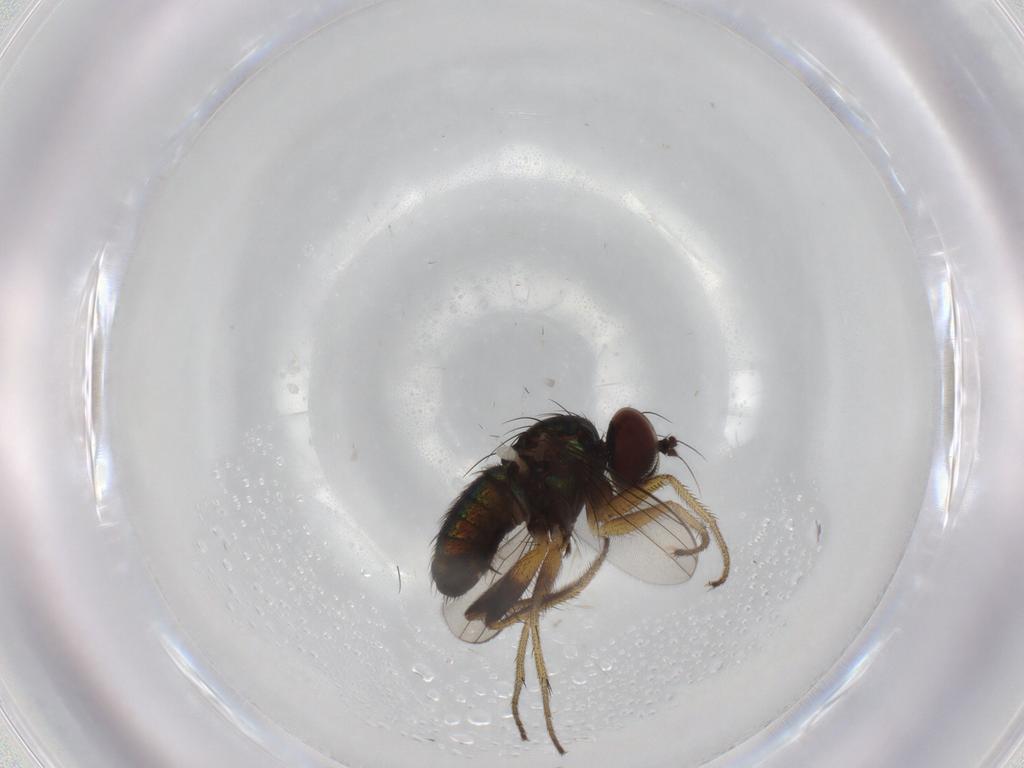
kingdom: Animalia
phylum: Arthropoda
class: Insecta
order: Diptera
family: Dolichopodidae
